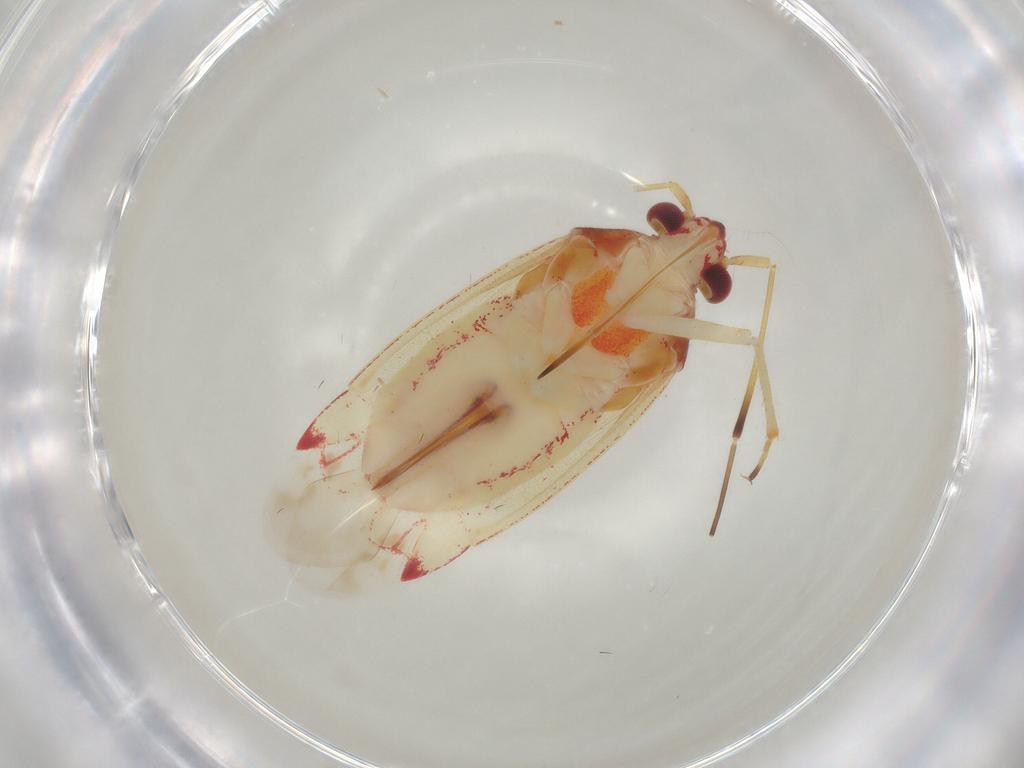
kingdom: Animalia
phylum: Arthropoda
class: Insecta
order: Hemiptera
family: Miridae
